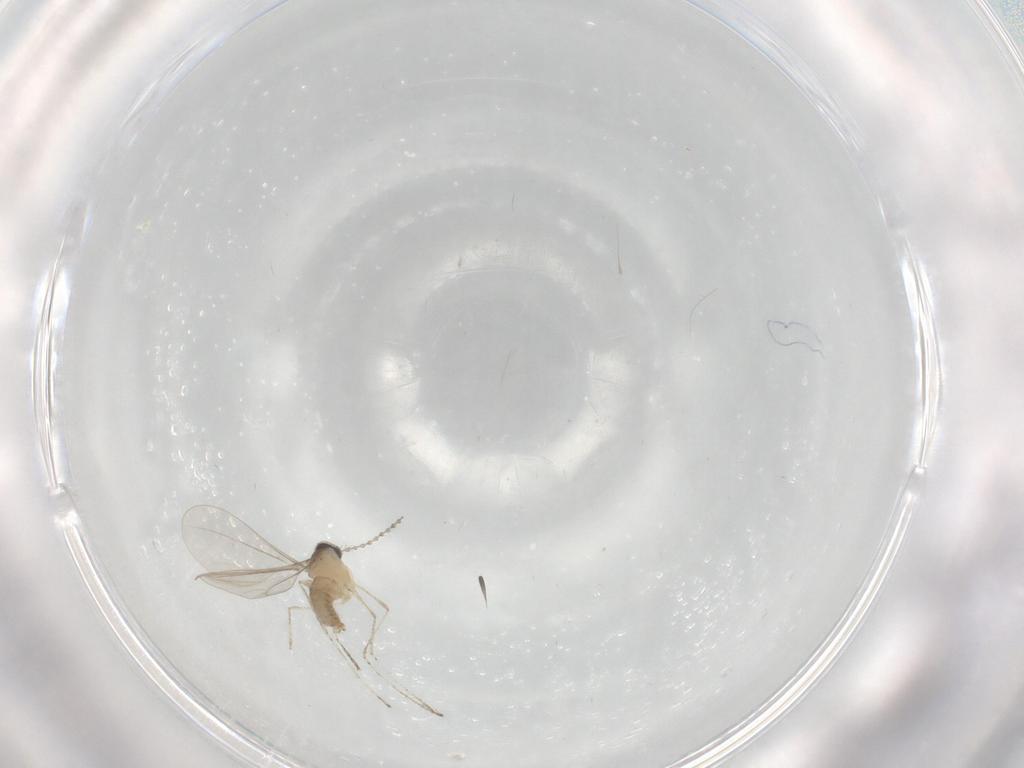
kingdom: Animalia
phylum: Arthropoda
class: Insecta
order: Diptera
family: Cecidomyiidae
